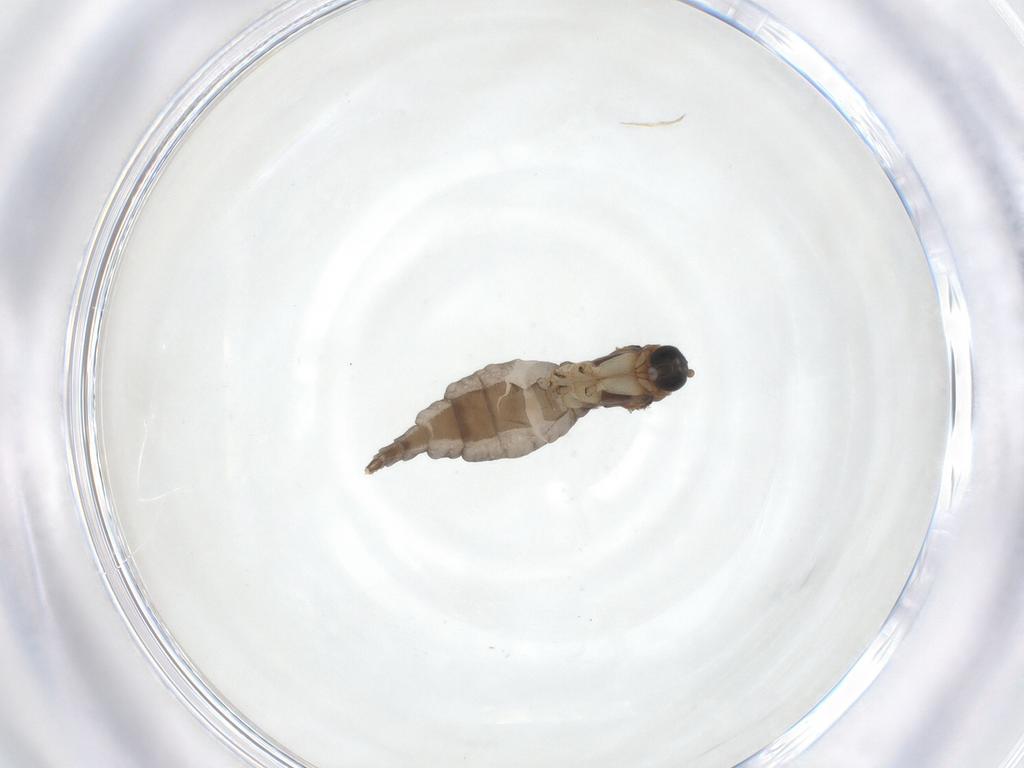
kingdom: Animalia
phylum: Arthropoda
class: Insecta
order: Diptera
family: Sciaridae
